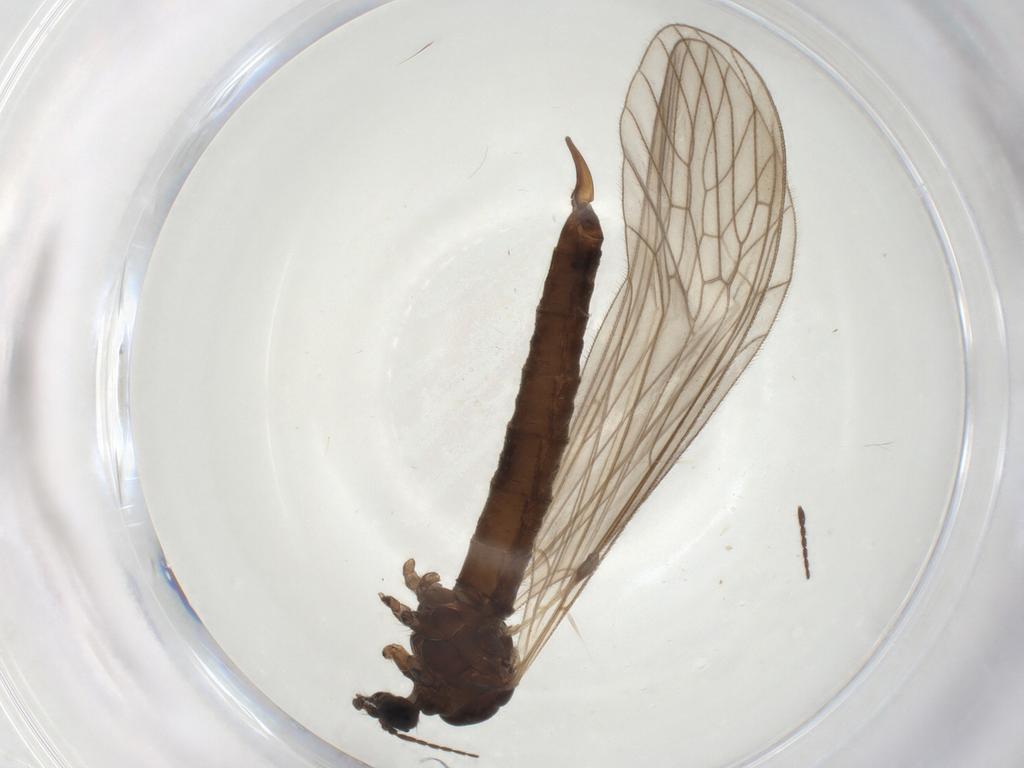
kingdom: Animalia
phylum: Arthropoda
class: Insecta
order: Diptera
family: Trichoceridae
